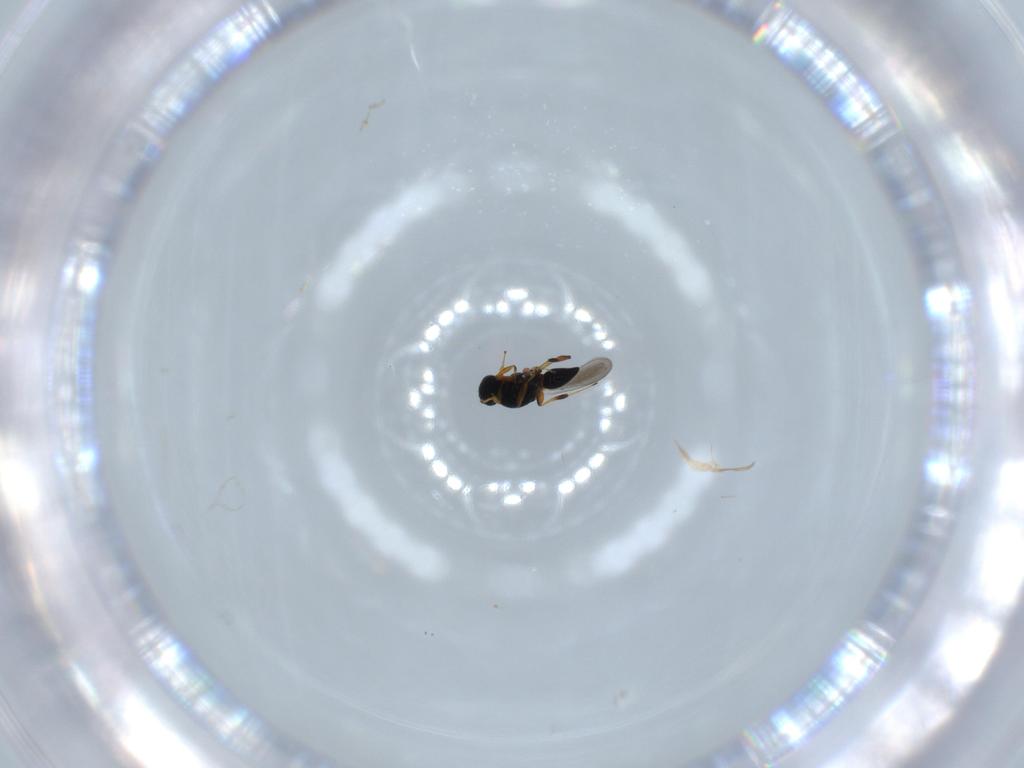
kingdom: Animalia
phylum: Arthropoda
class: Insecta
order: Hymenoptera
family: Platygastridae
